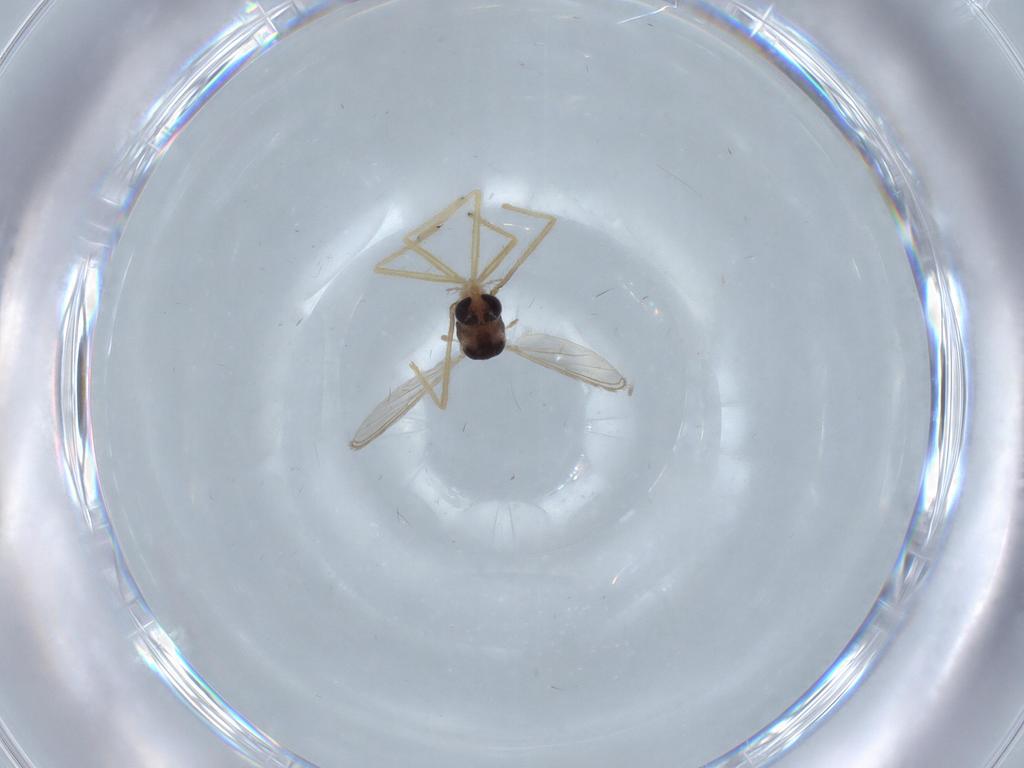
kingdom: Animalia
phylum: Arthropoda
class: Insecta
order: Diptera
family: Chironomidae
